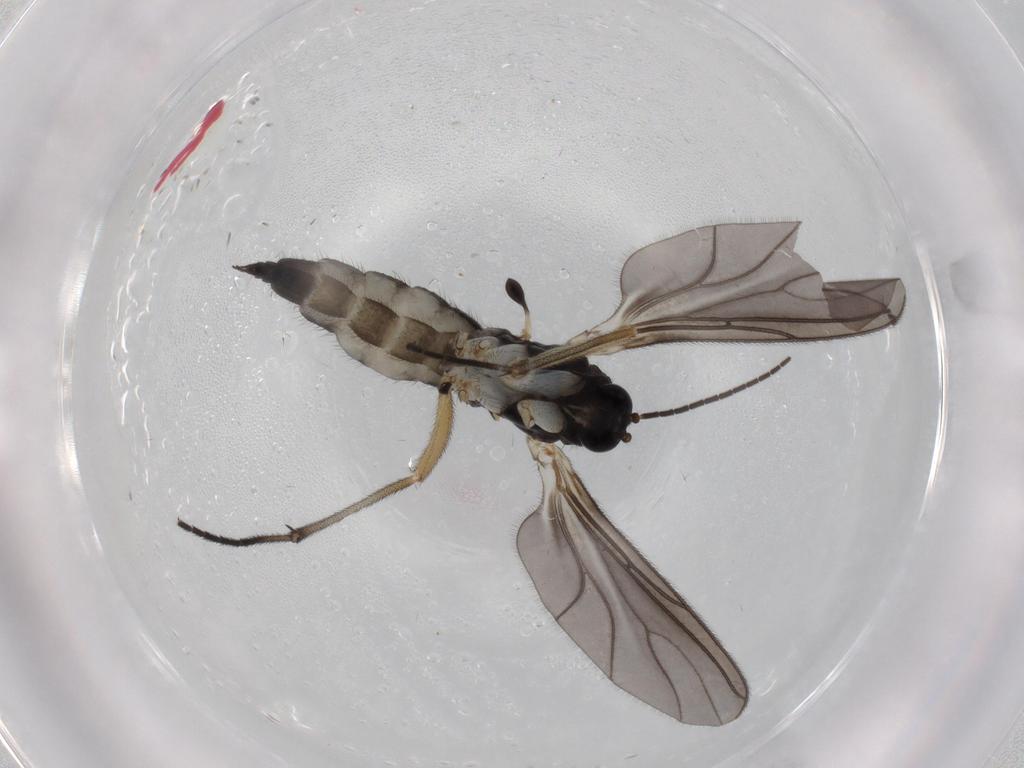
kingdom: Animalia
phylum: Arthropoda
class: Insecta
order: Diptera
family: Sciaridae
